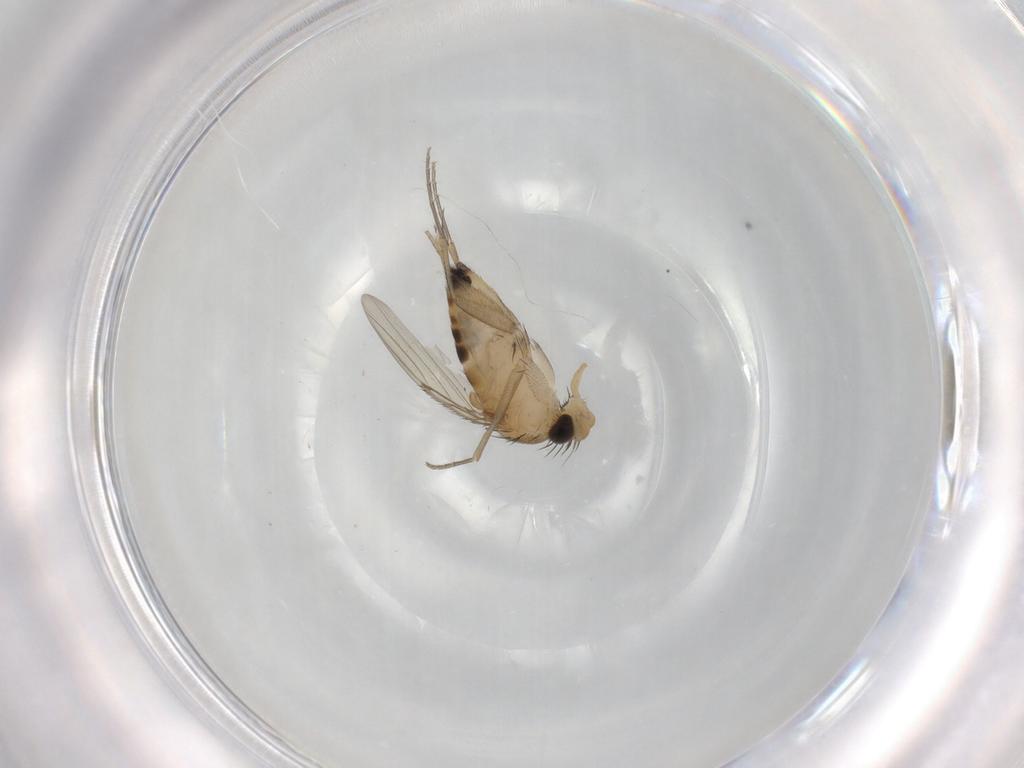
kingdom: Animalia
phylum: Arthropoda
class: Insecta
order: Diptera
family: Phoridae
